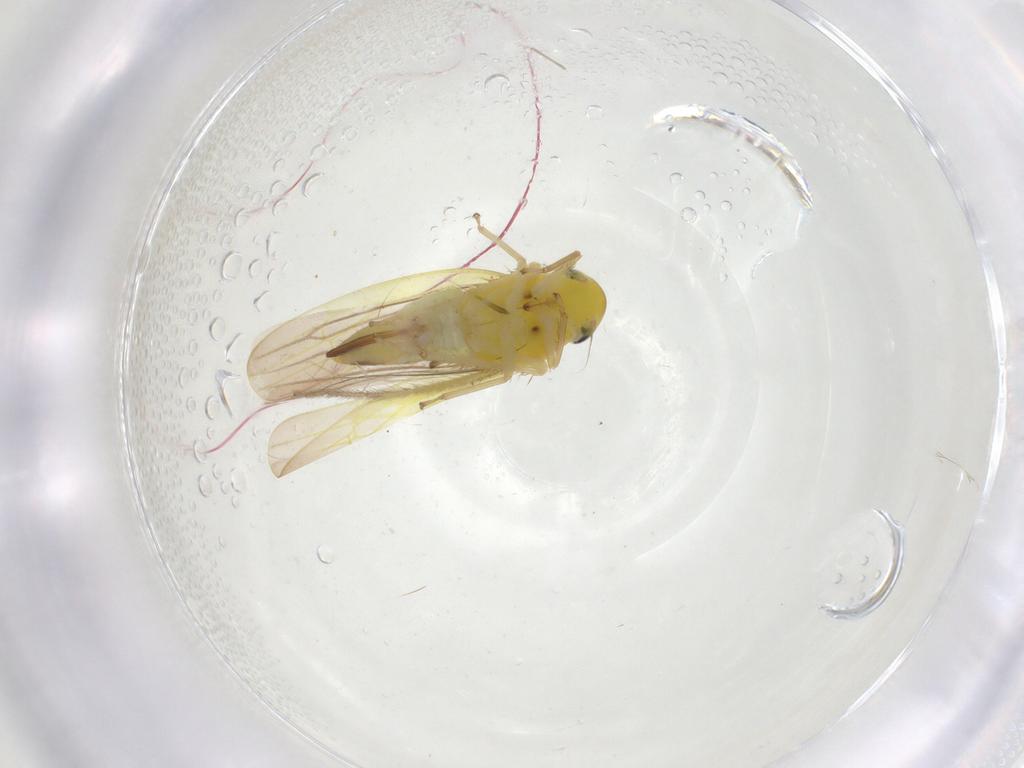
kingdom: Animalia
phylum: Arthropoda
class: Insecta
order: Hemiptera
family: Cicadellidae
